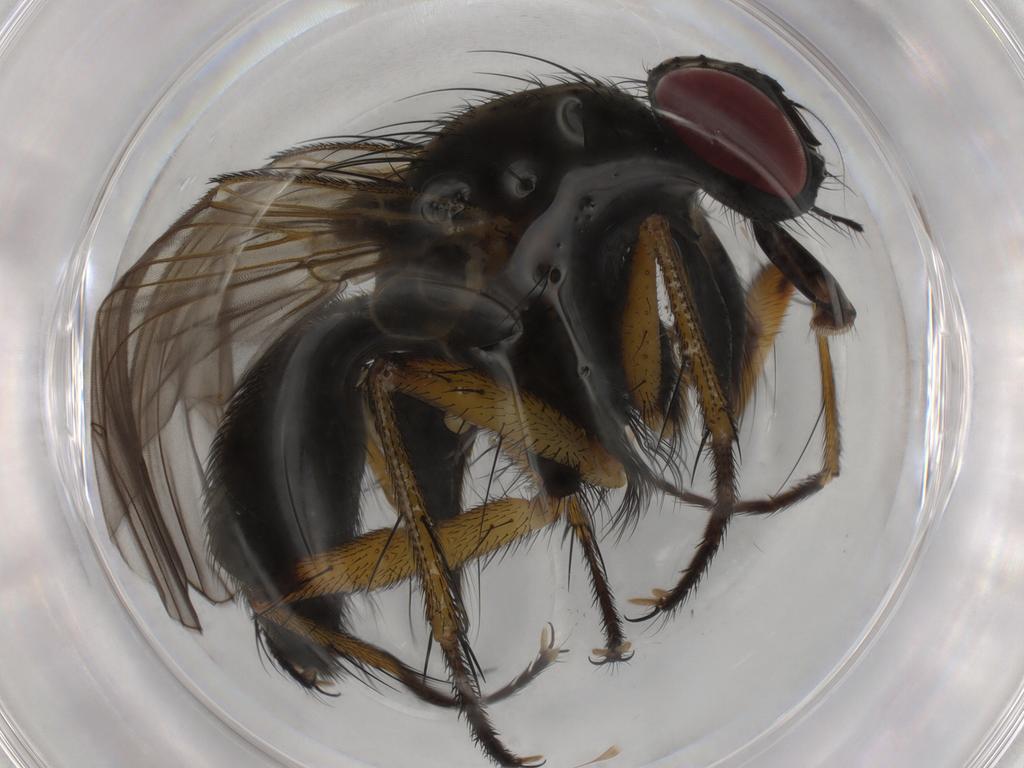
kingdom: Animalia
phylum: Arthropoda
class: Insecta
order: Diptera
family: Muscidae
